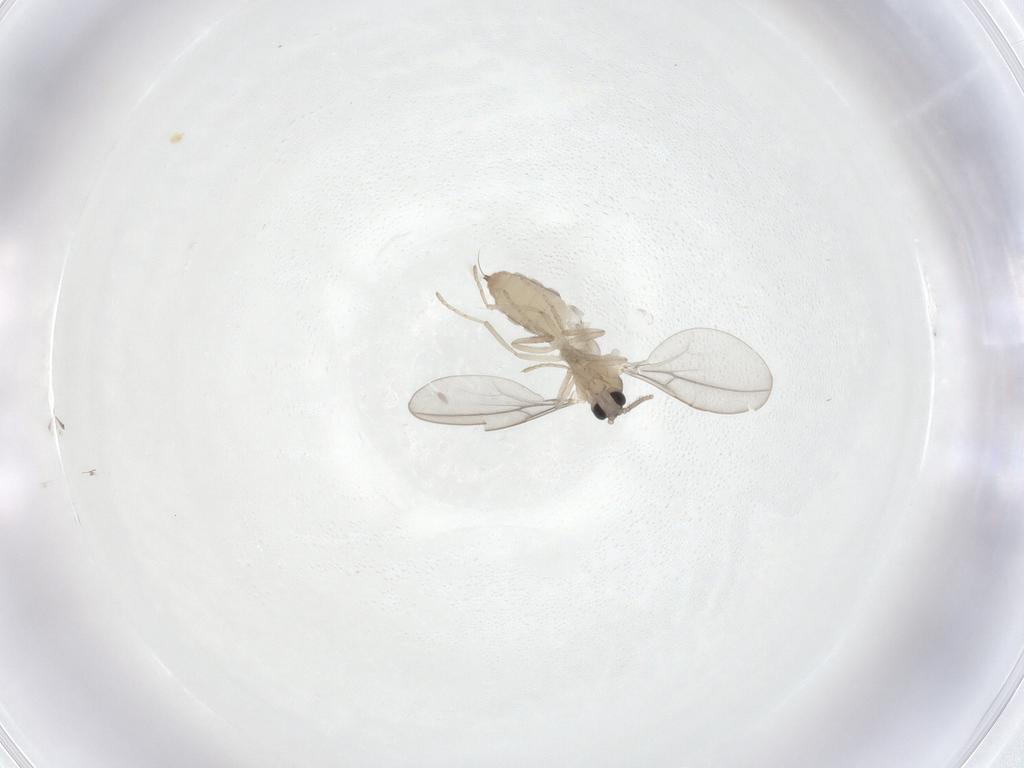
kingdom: Animalia
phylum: Arthropoda
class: Insecta
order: Diptera
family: Cecidomyiidae
